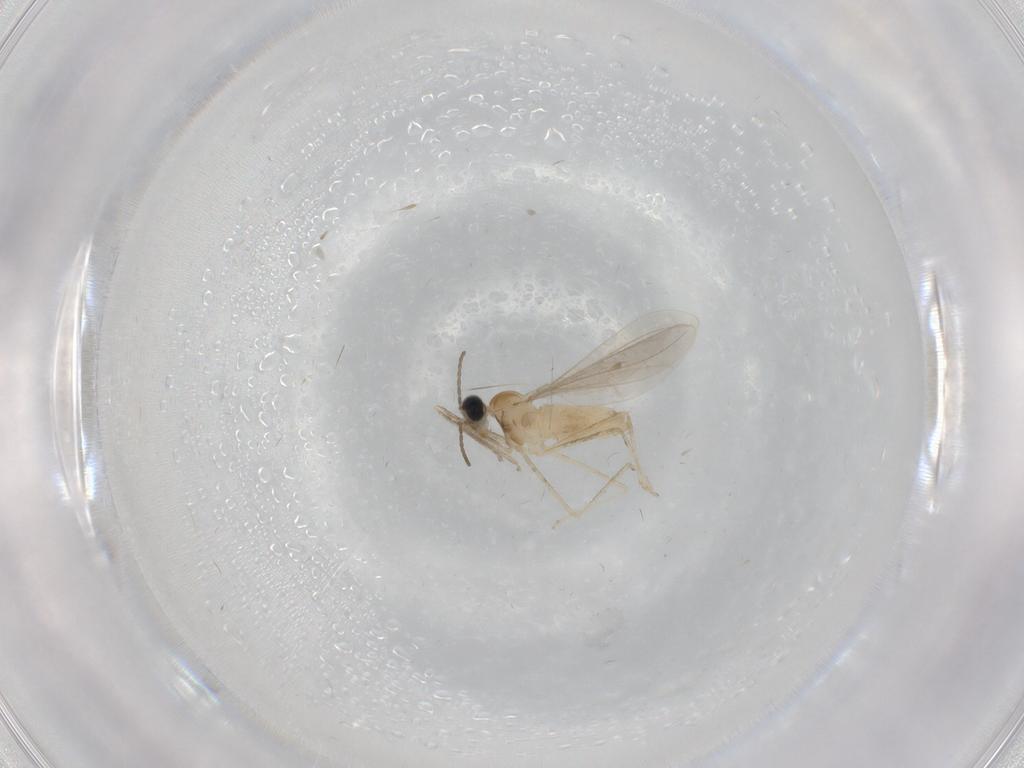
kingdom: Animalia
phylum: Arthropoda
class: Insecta
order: Diptera
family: Cecidomyiidae
